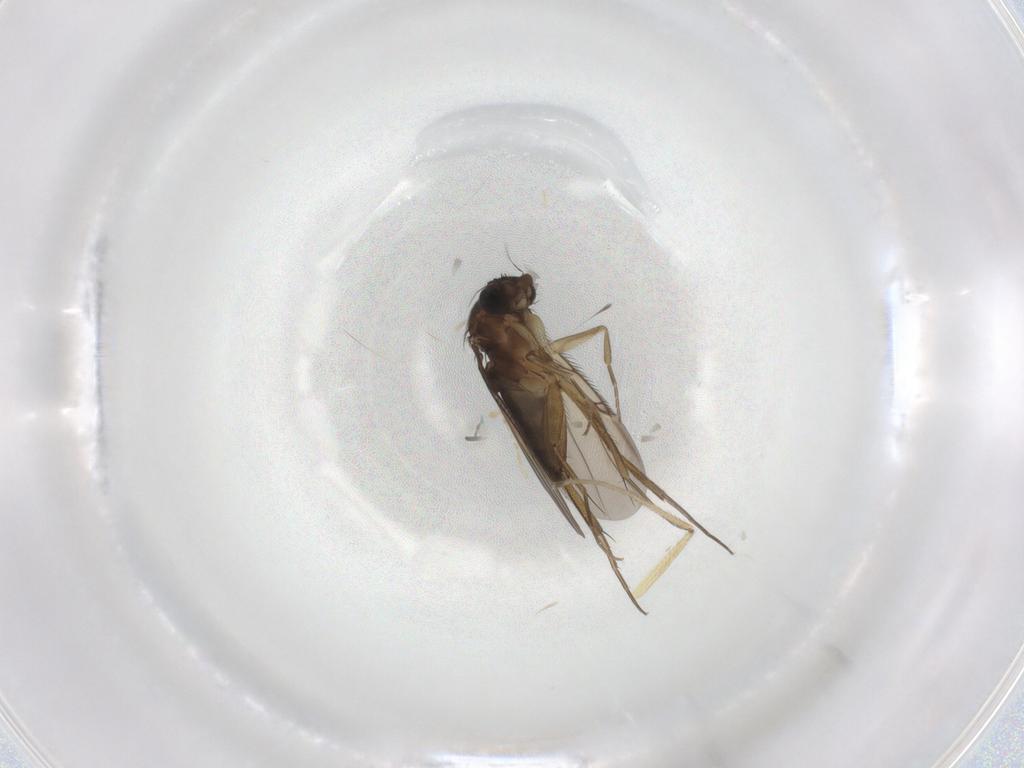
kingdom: Animalia
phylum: Arthropoda
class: Insecta
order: Diptera
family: Phoridae
